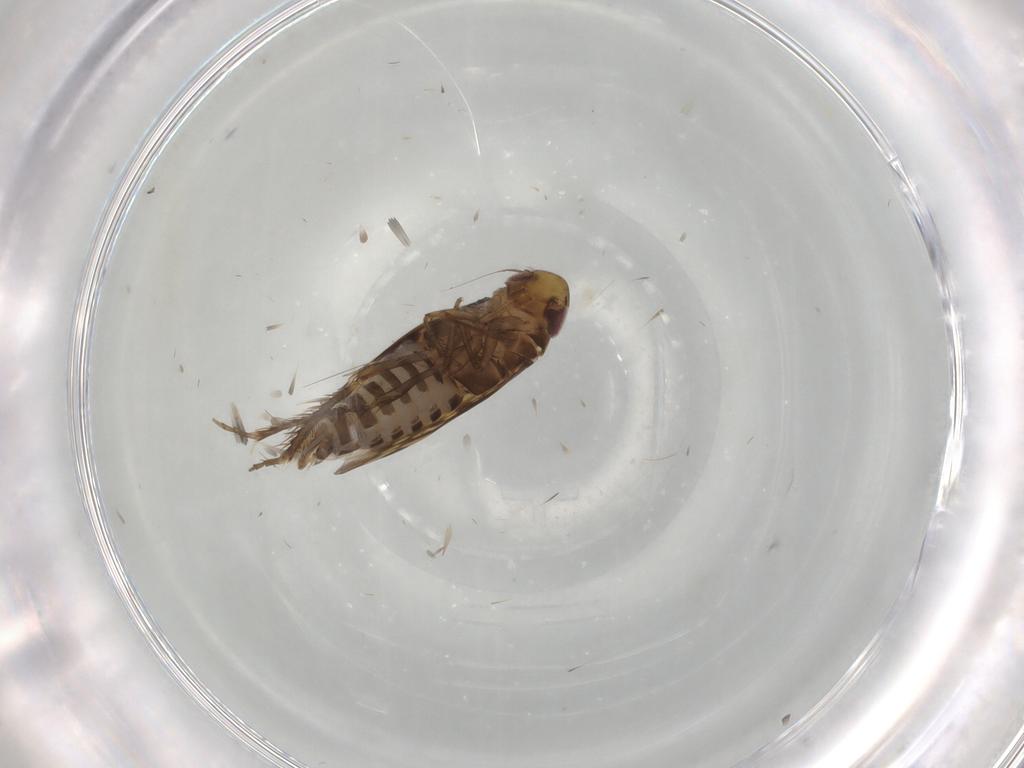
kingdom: Animalia
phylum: Arthropoda
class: Insecta
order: Hemiptera
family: Cicadellidae
